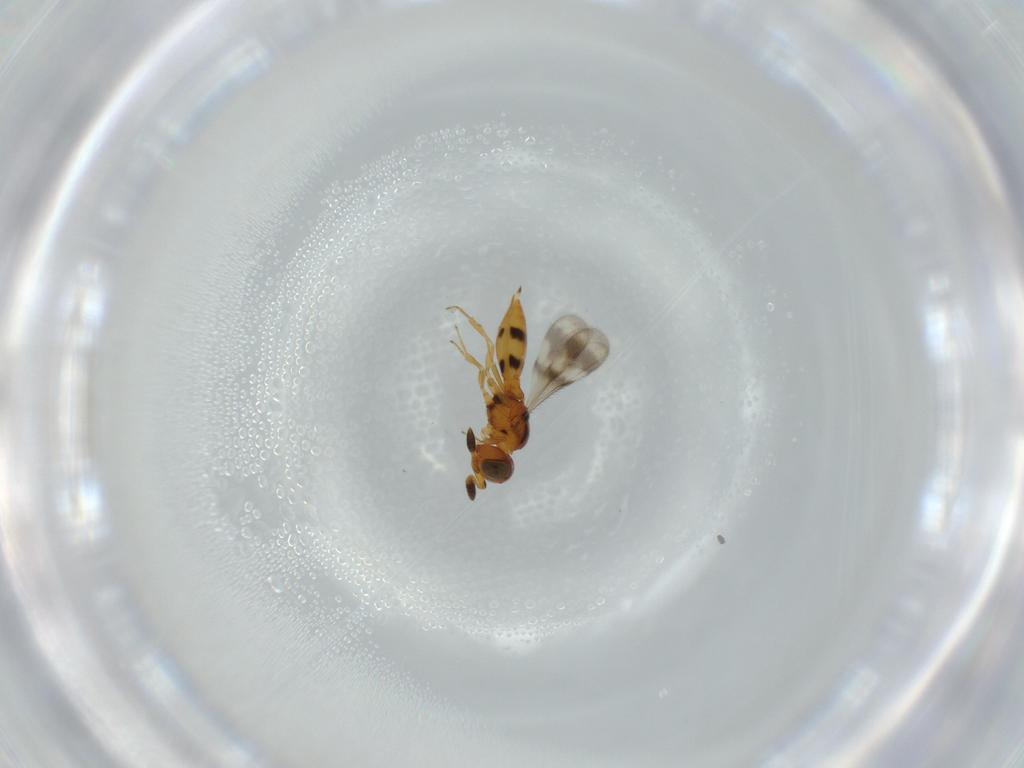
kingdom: Animalia
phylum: Arthropoda
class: Insecta
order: Hymenoptera
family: Scelionidae
